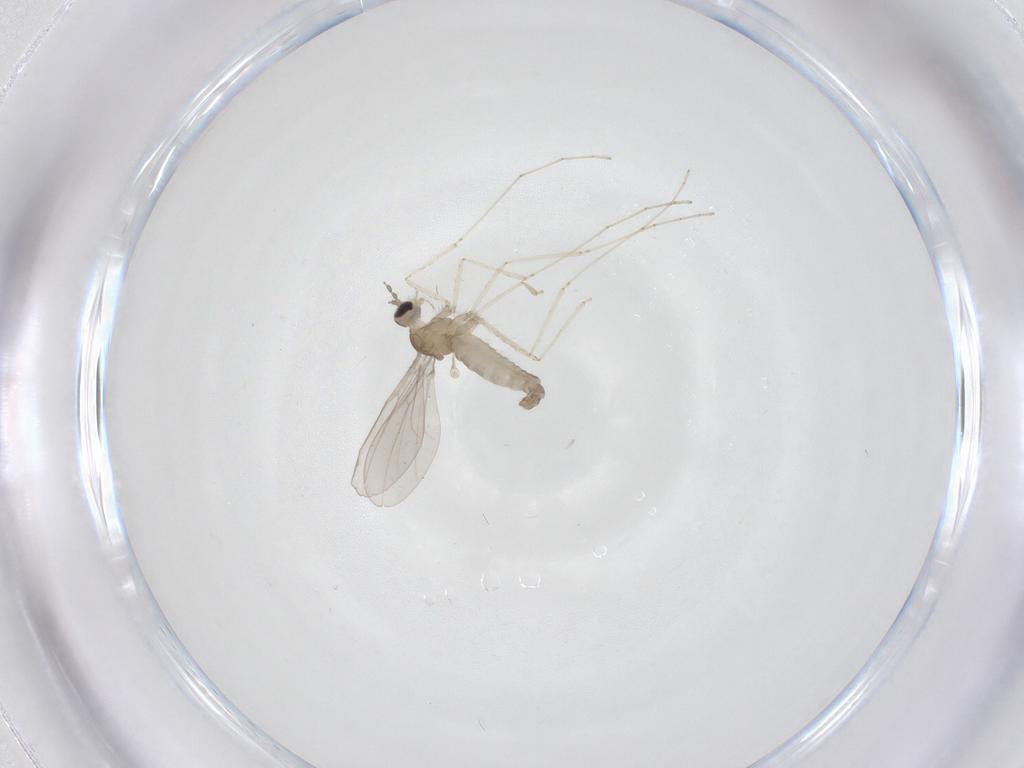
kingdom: Animalia
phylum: Arthropoda
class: Insecta
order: Diptera
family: Cecidomyiidae
